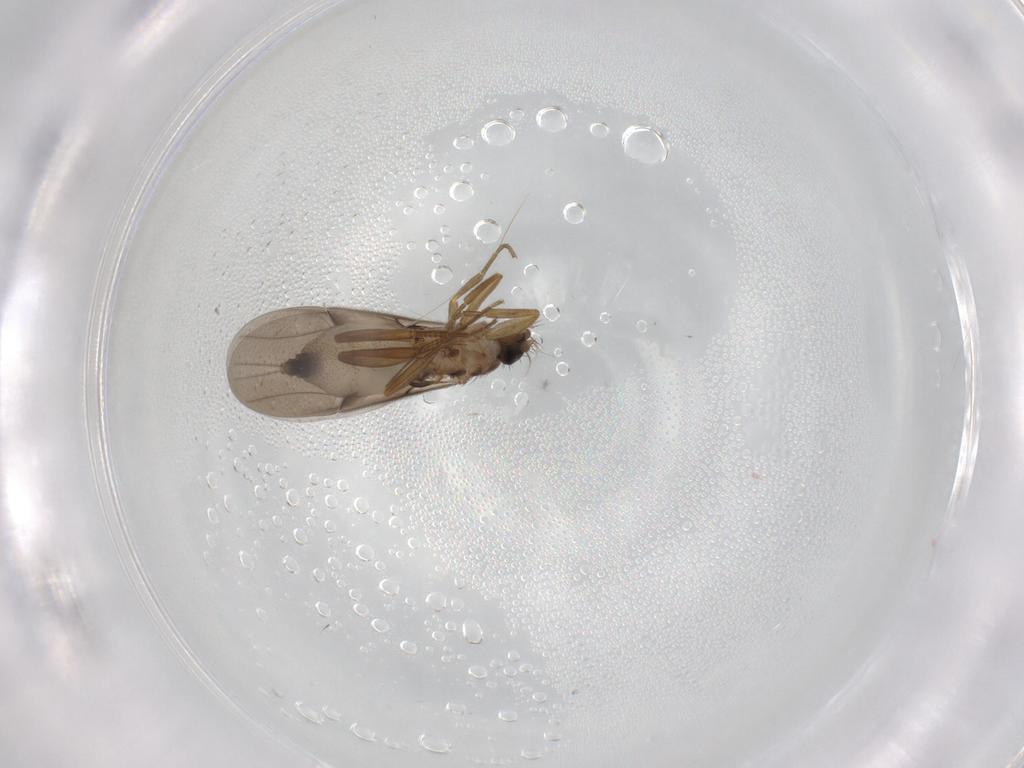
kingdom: Animalia
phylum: Arthropoda
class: Insecta
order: Diptera
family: Phoridae
